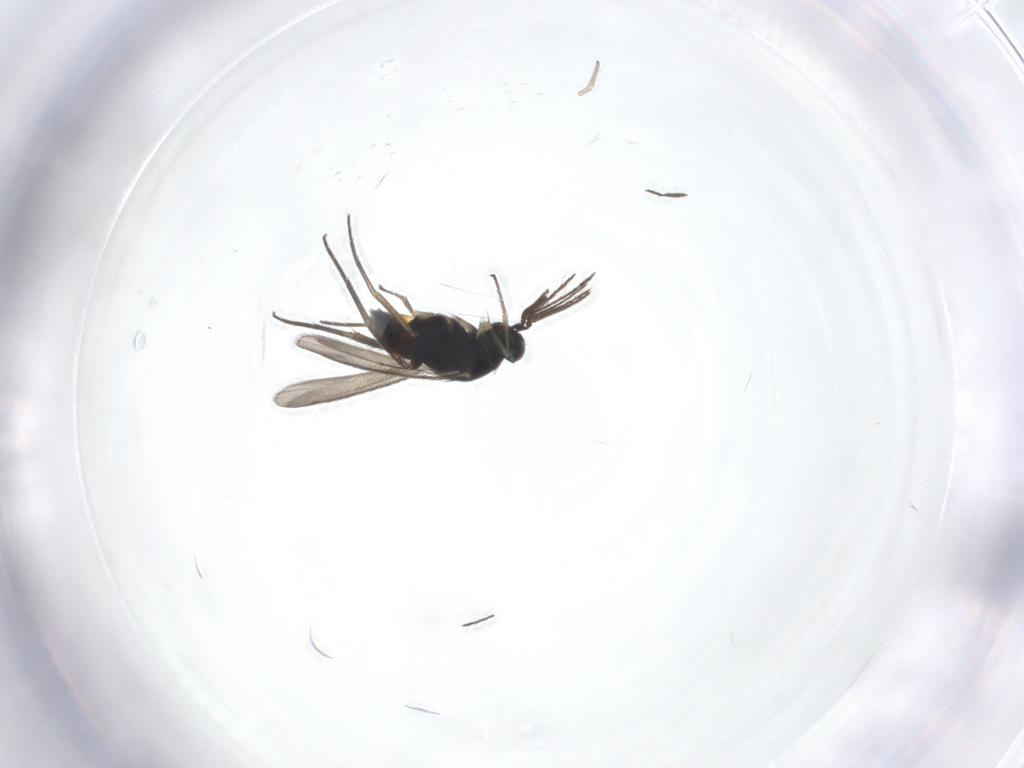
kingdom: Animalia
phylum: Arthropoda
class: Insecta
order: Hymenoptera
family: Eulophidae
